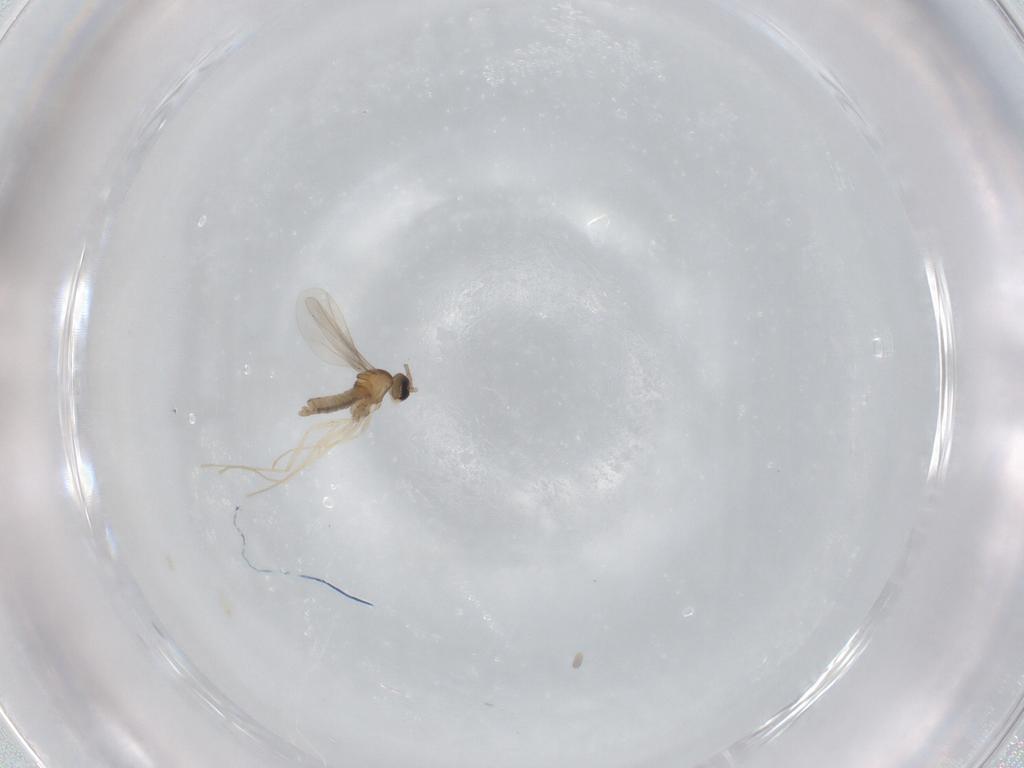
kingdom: Animalia
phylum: Arthropoda
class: Insecta
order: Diptera
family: Cecidomyiidae
